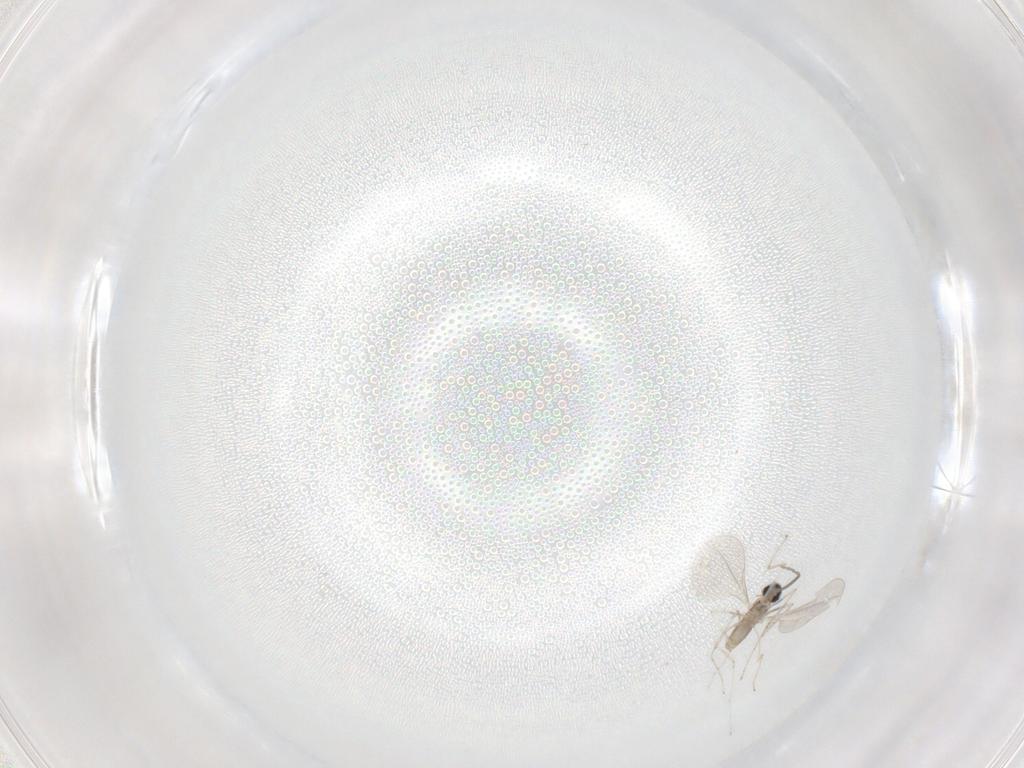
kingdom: Animalia
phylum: Arthropoda
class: Insecta
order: Diptera
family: Cecidomyiidae
